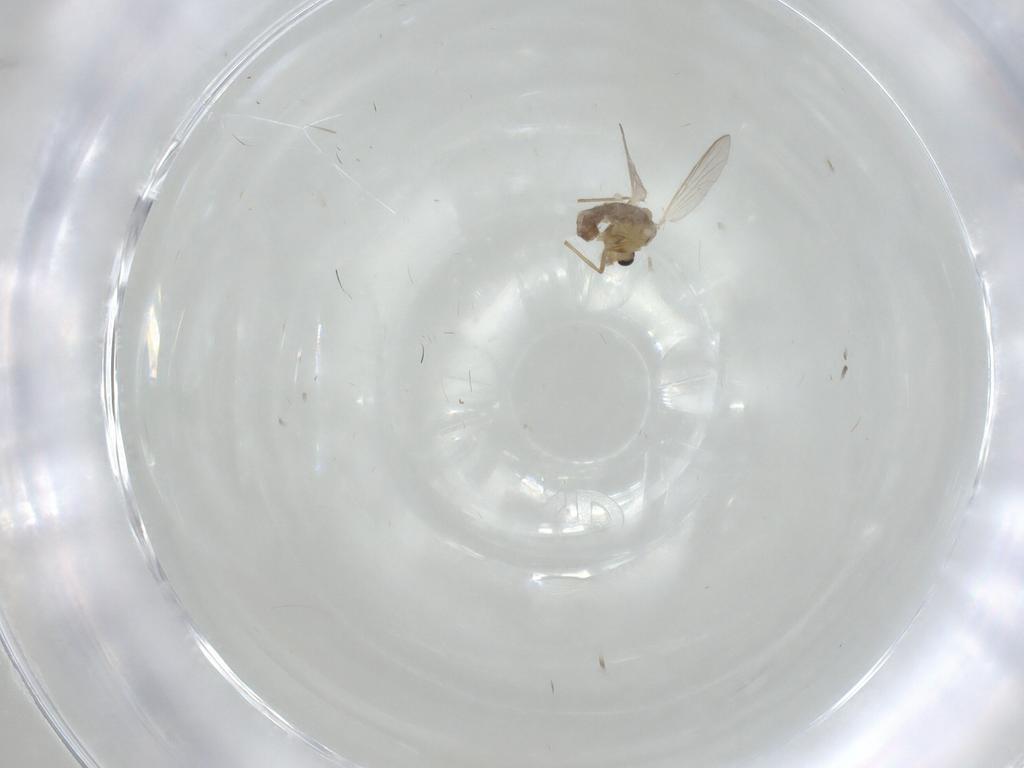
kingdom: Animalia
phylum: Arthropoda
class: Insecta
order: Diptera
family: Chironomidae
